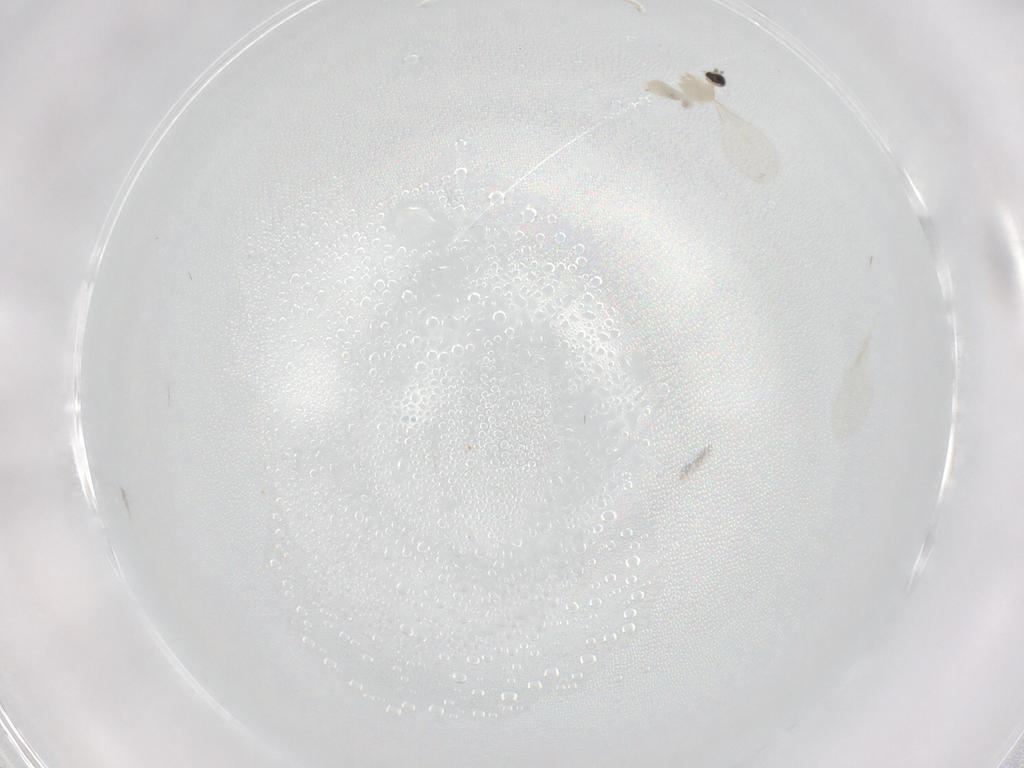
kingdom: Animalia
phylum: Arthropoda
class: Insecta
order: Diptera
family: Cecidomyiidae
